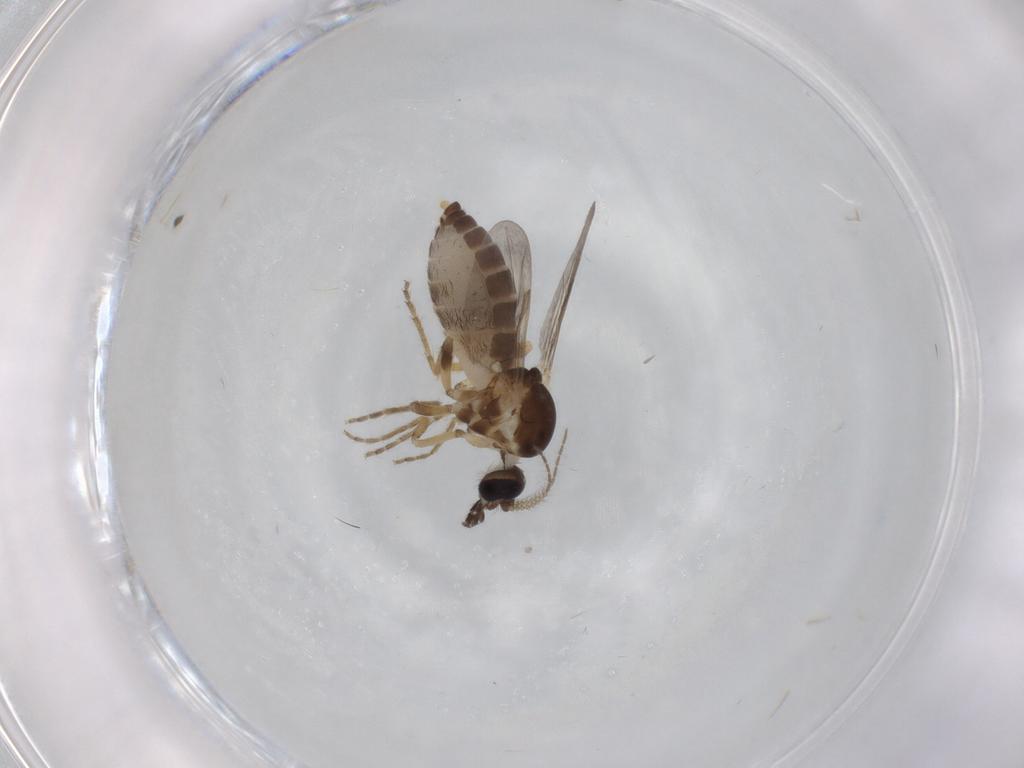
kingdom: Animalia
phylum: Arthropoda
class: Insecta
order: Diptera
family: Ceratopogonidae
